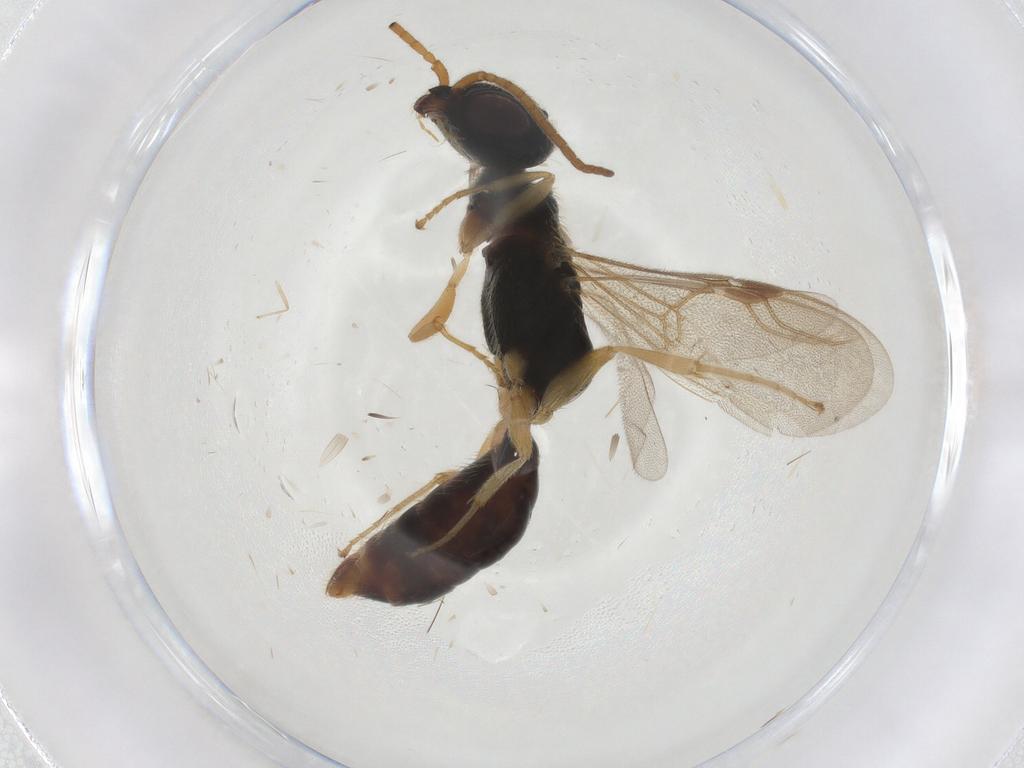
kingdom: Animalia
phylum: Arthropoda
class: Insecta
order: Hymenoptera
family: Bethylidae
